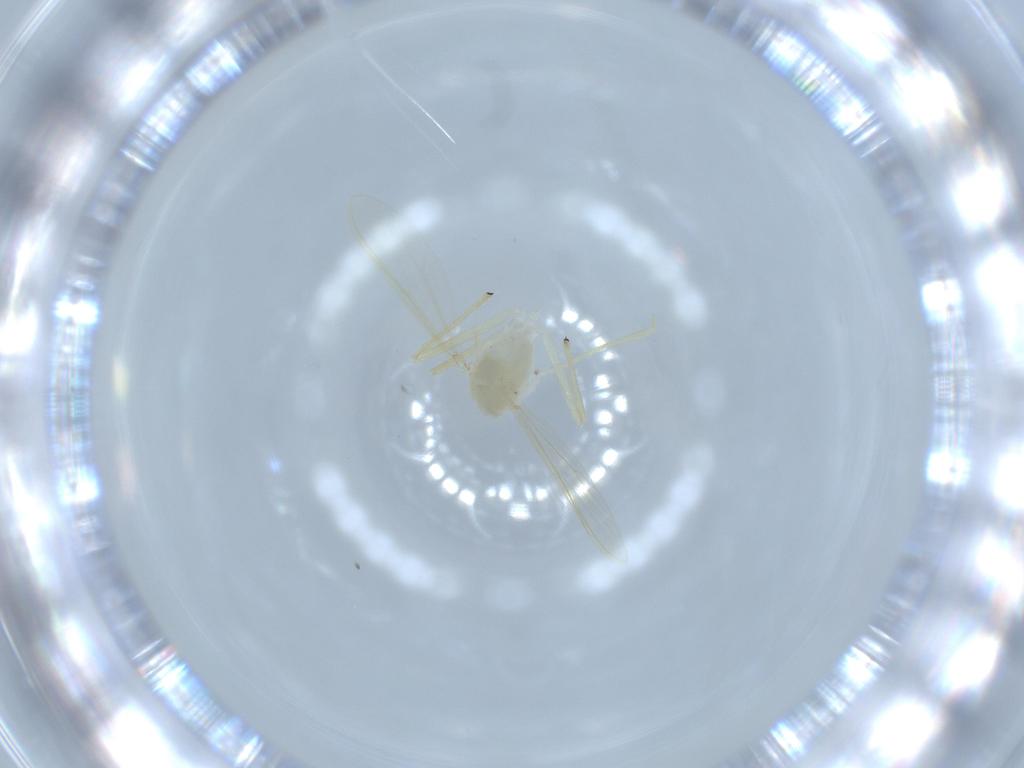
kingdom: Animalia
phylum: Arthropoda
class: Insecta
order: Diptera
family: Chironomidae
